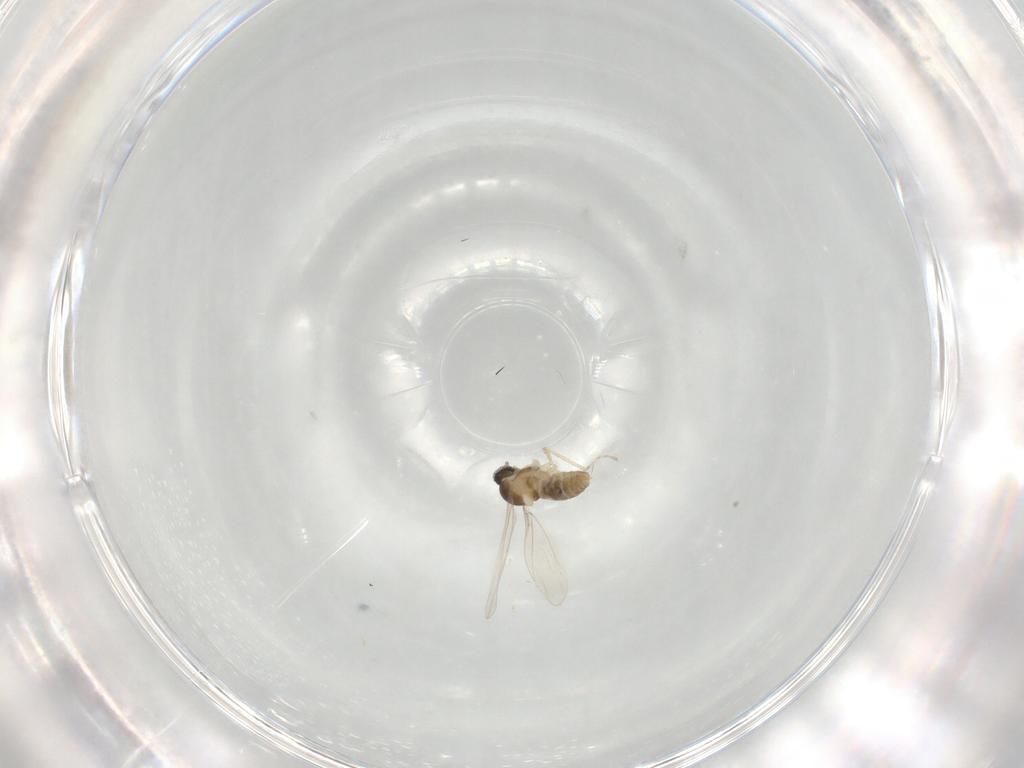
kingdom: Animalia
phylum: Arthropoda
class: Insecta
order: Diptera
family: Cecidomyiidae
